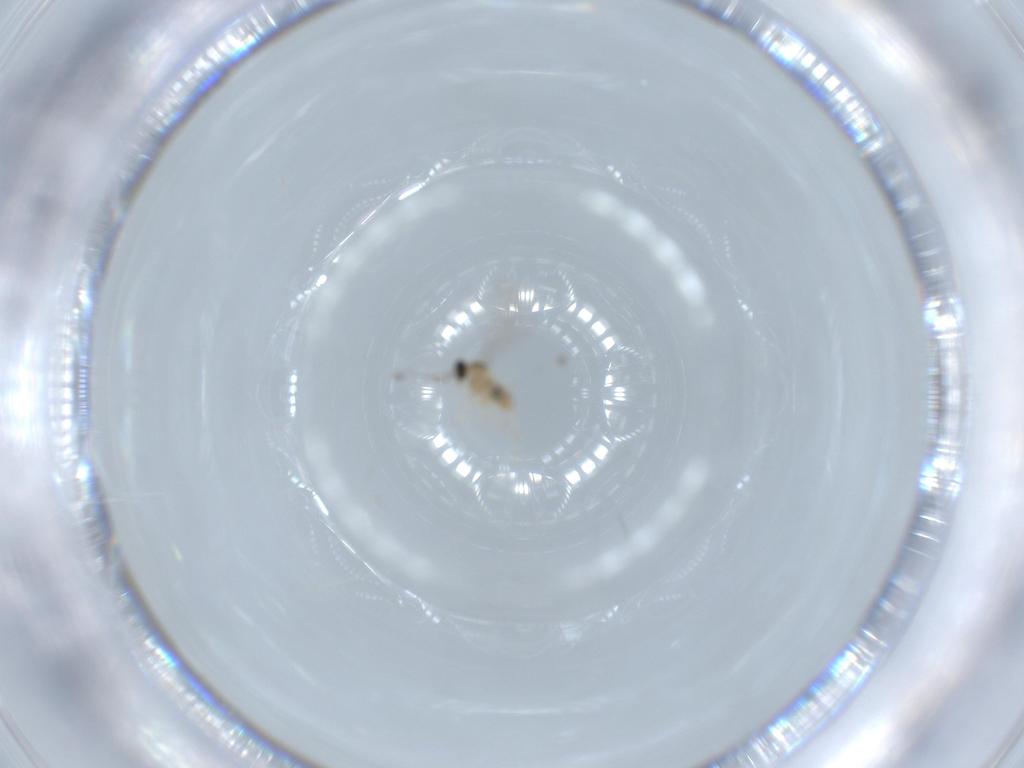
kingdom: Animalia
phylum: Arthropoda
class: Insecta
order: Diptera
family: Cecidomyiidae
